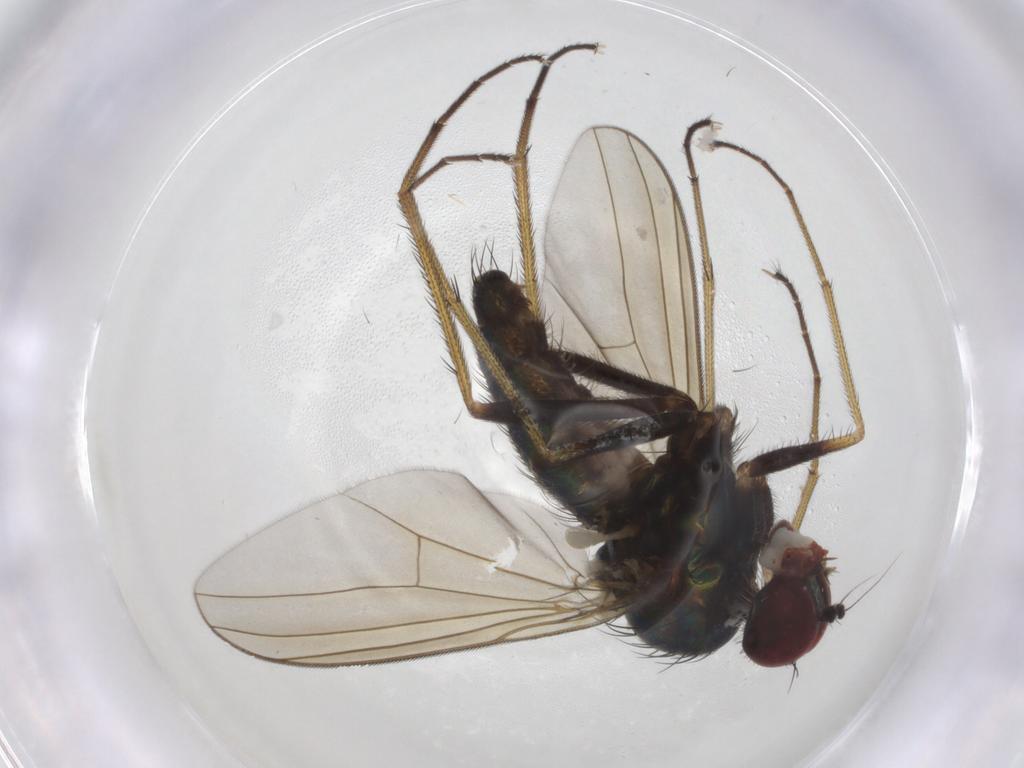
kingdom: Animalia
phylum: Arthropoda
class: Insecta
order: Diptera
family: Dolichopodidae
